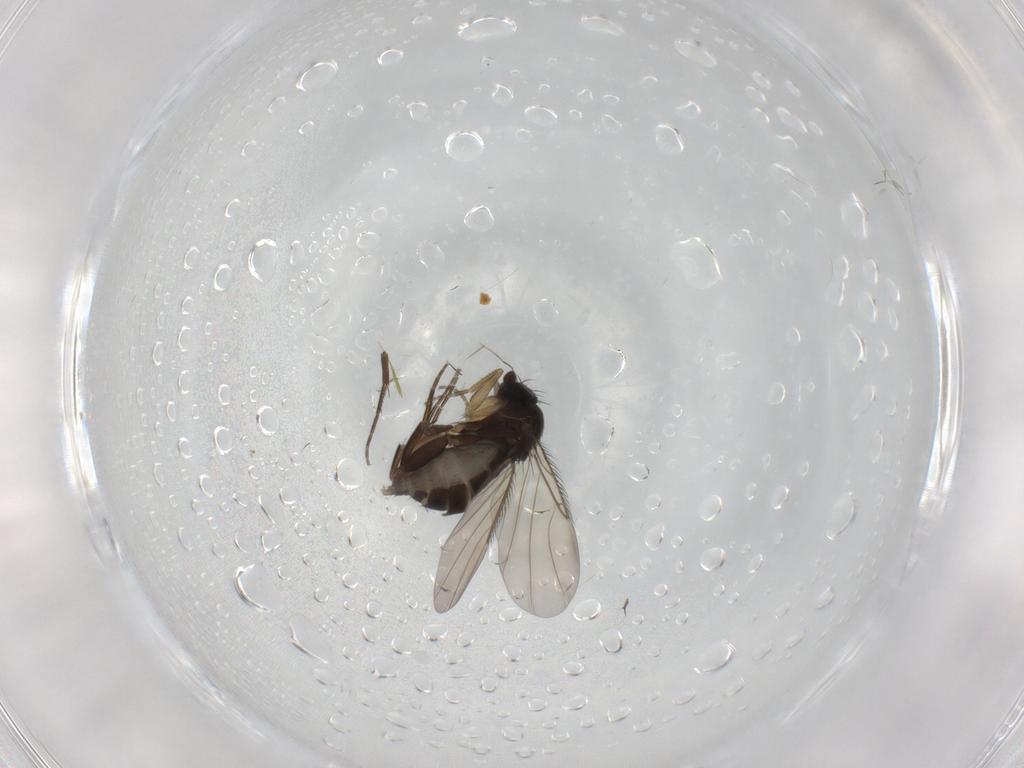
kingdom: Animalia
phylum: Arthropoda
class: Insecta
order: Diptera
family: Phoridae
